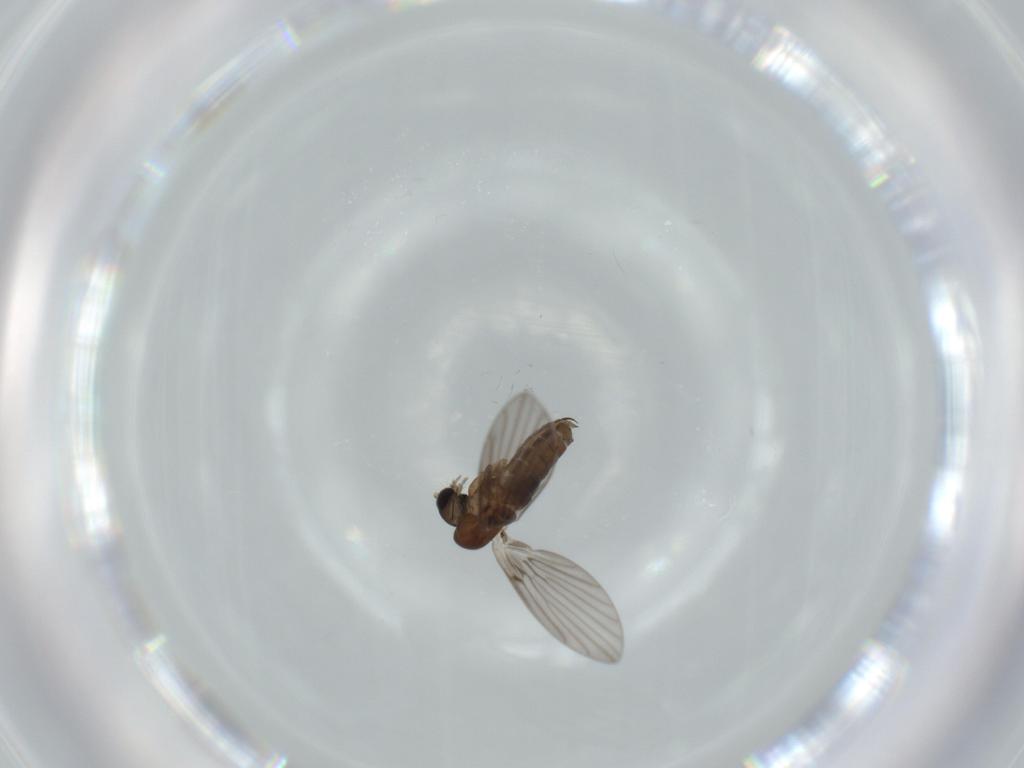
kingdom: Animalia
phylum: Arthropoda
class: Insecta
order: Diptera
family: Psychodidae
